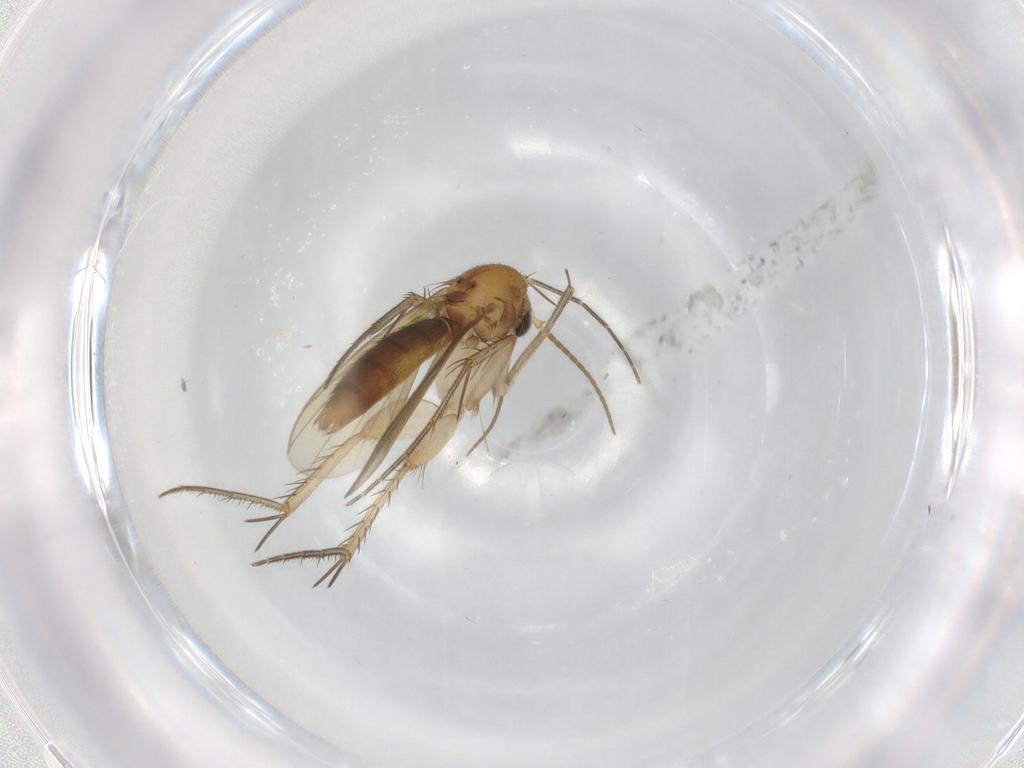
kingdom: Animalia
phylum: Arthropoda
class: Insecta
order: Diptera
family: Mycetophilidae
